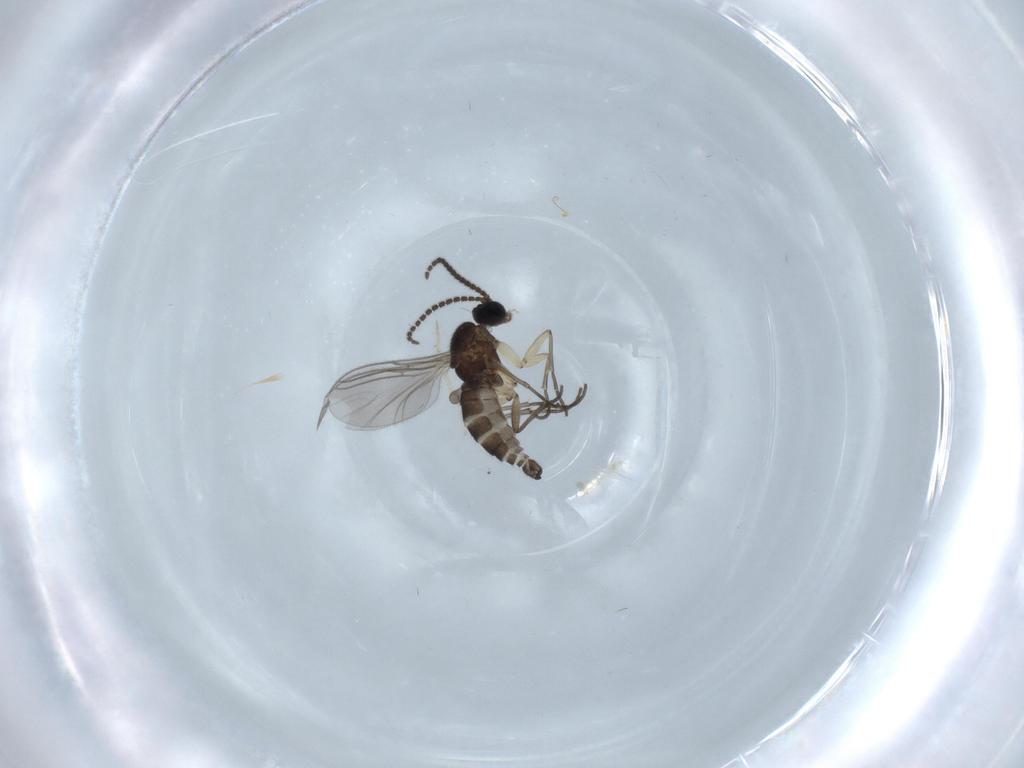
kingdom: Animalia
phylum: Arthropoda
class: Insecta
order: Diptera
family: Sciaridae
